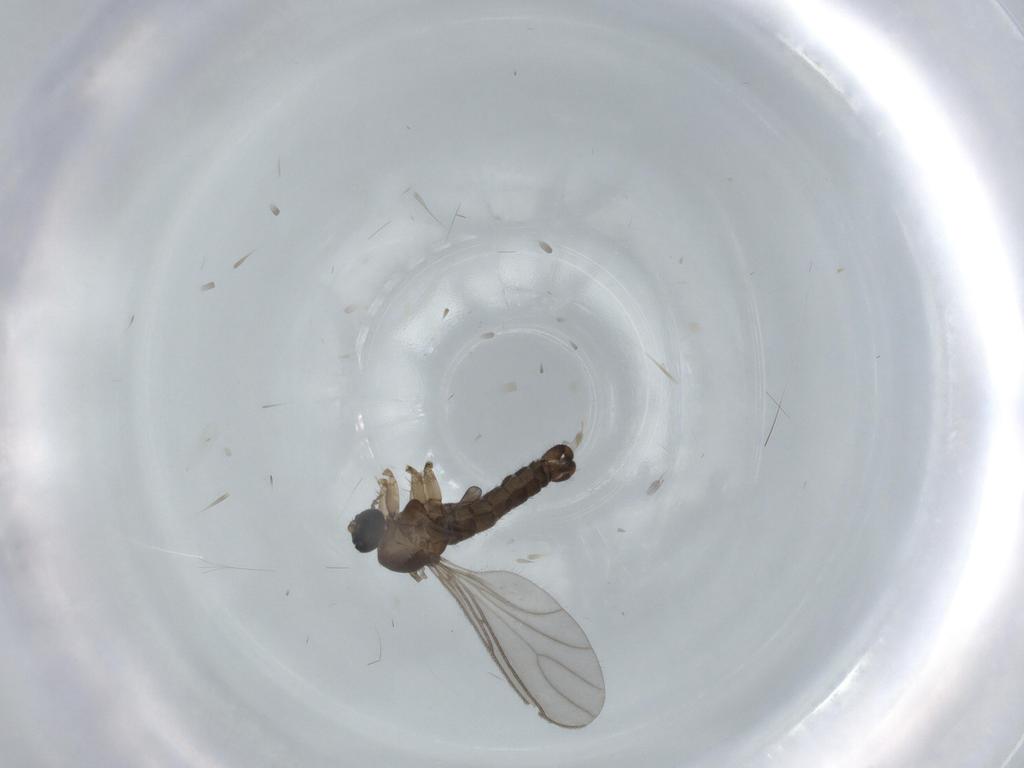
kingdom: Animalia
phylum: Arthropoda
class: Insecta
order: Diptera
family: Sciaridae
